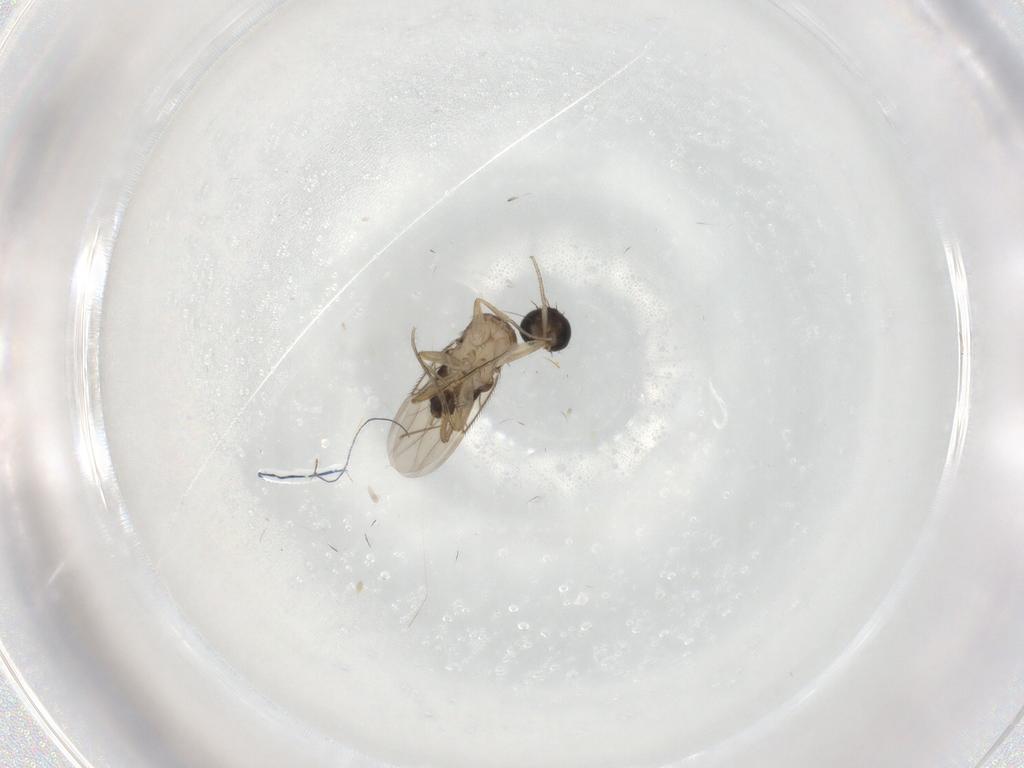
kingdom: Animalia
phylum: Arthropoda
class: Insecta
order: Diptera
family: Phoridae
